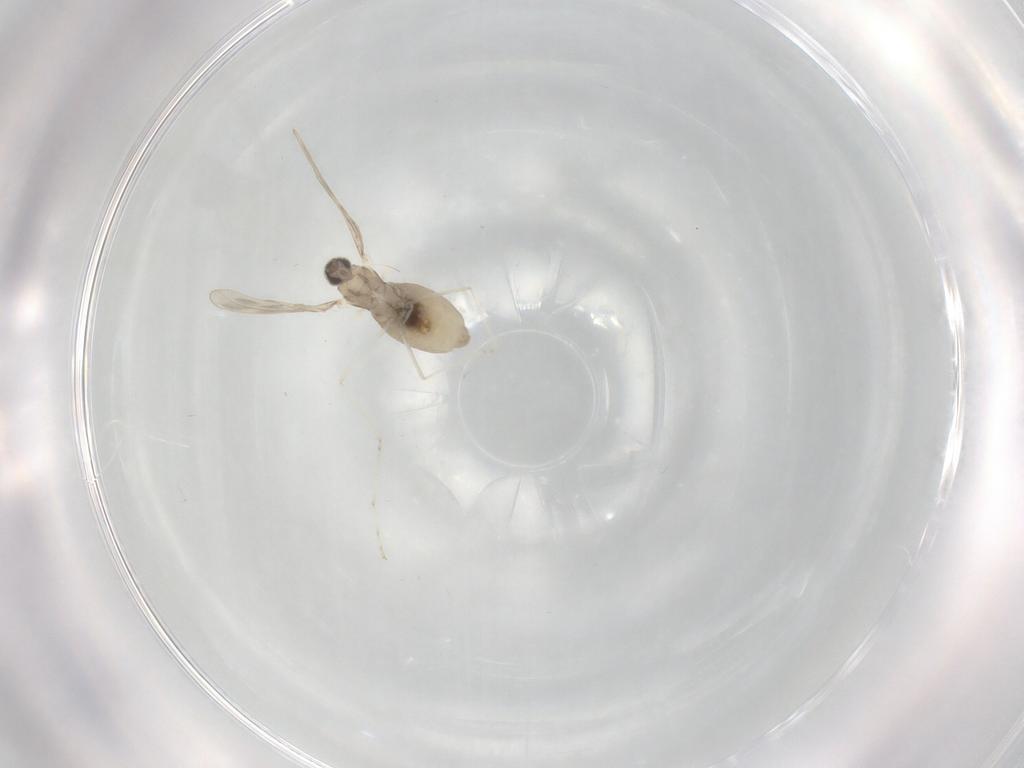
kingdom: Animalia
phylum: Arthropoda
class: Insecta
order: Diptera
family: Cecidomyiidae
